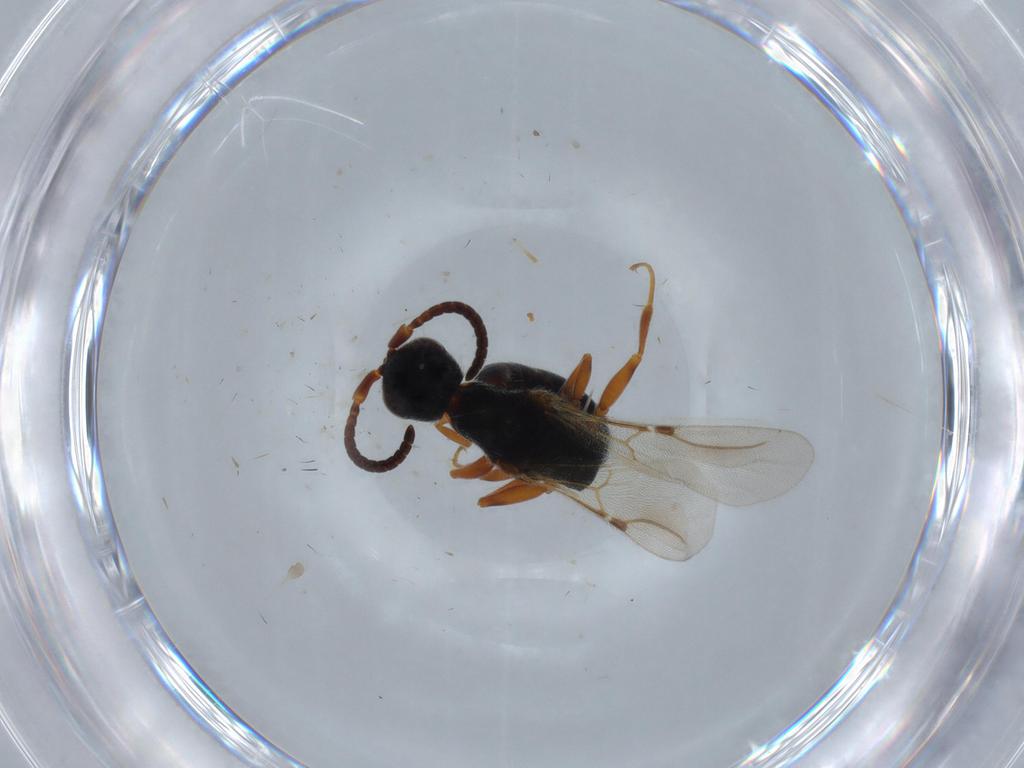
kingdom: Animalia
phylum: Arthropoda
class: Insecta
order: Hymenoptera
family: Bethylidae
